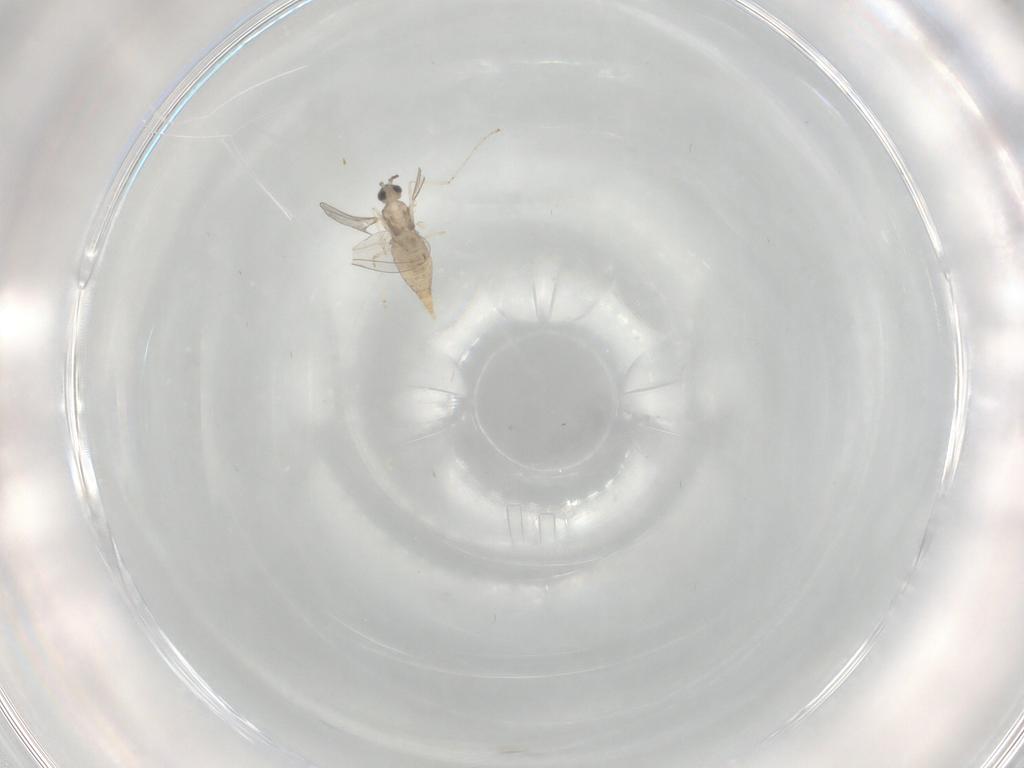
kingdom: Animalia
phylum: Arthropoda
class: Insecta
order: Diptera
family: Cecidomyiidae
